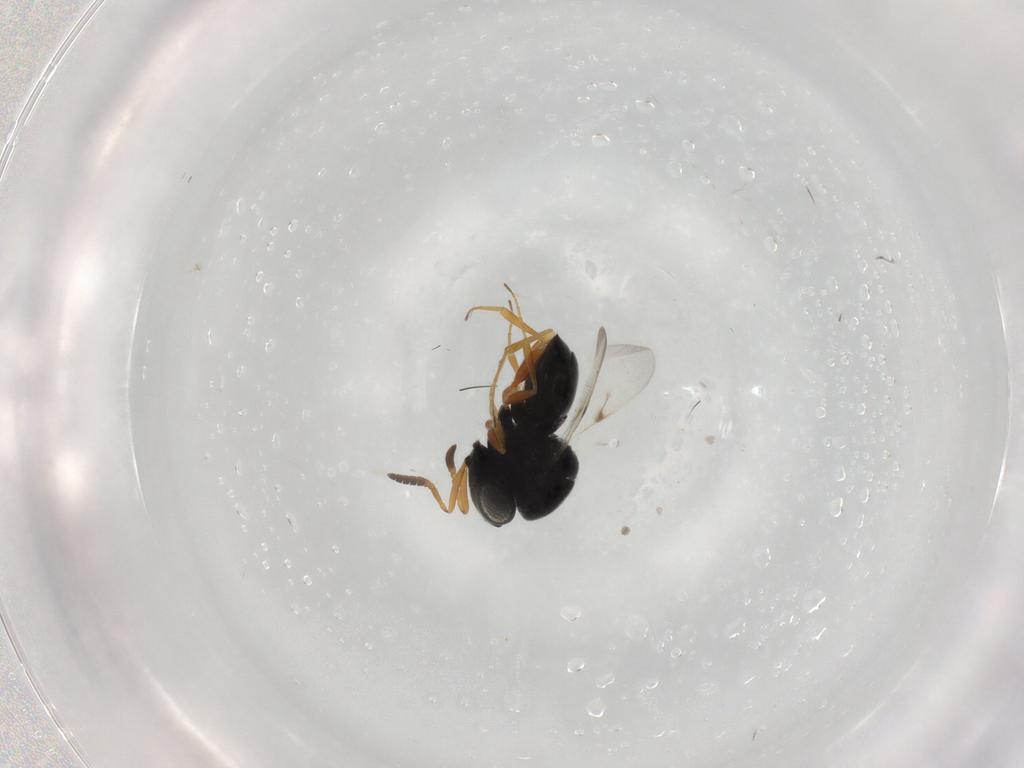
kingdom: Animalia
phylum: Arthropoda
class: Insecta
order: Hymenoptera
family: Scelionidae
